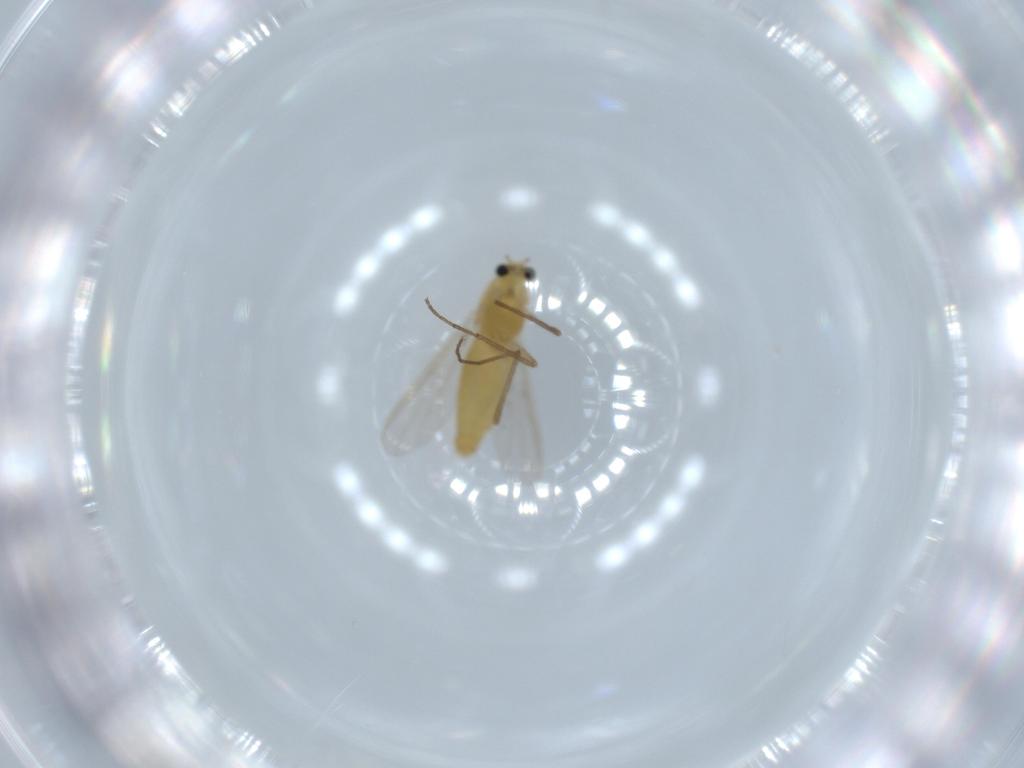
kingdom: Animalia
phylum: Arthropoda
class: Insecta
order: Diptera
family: Chironomidae
